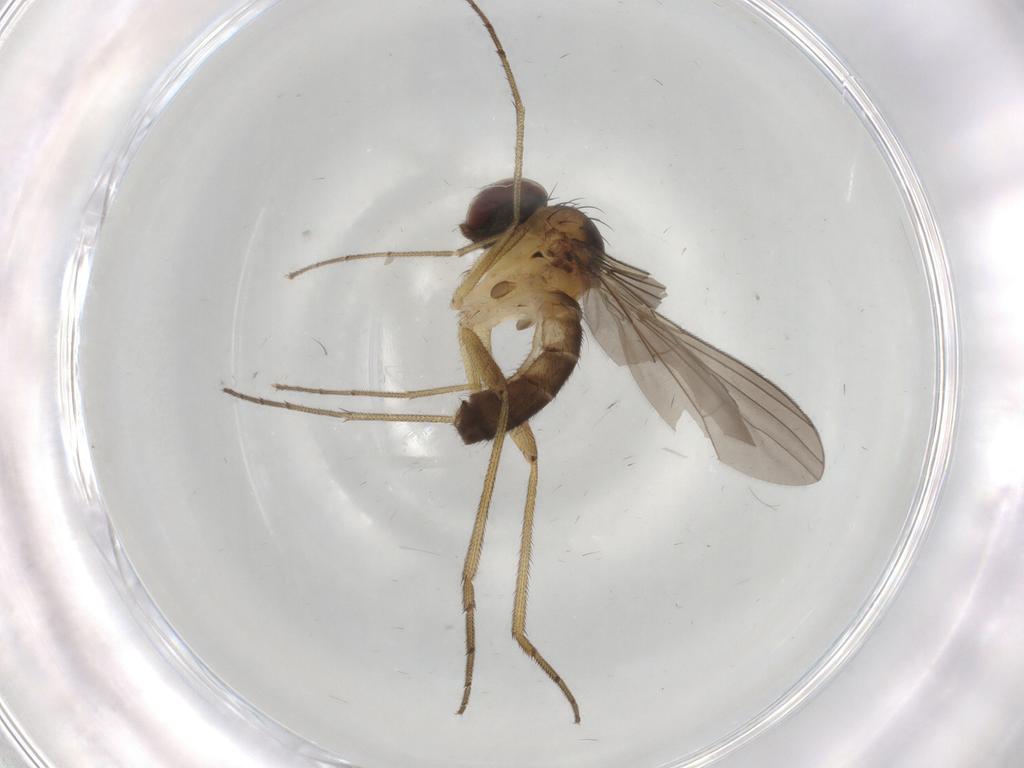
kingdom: Animalia
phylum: Arthropoda
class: Insecta
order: Diptera
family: Dolichopodidae
